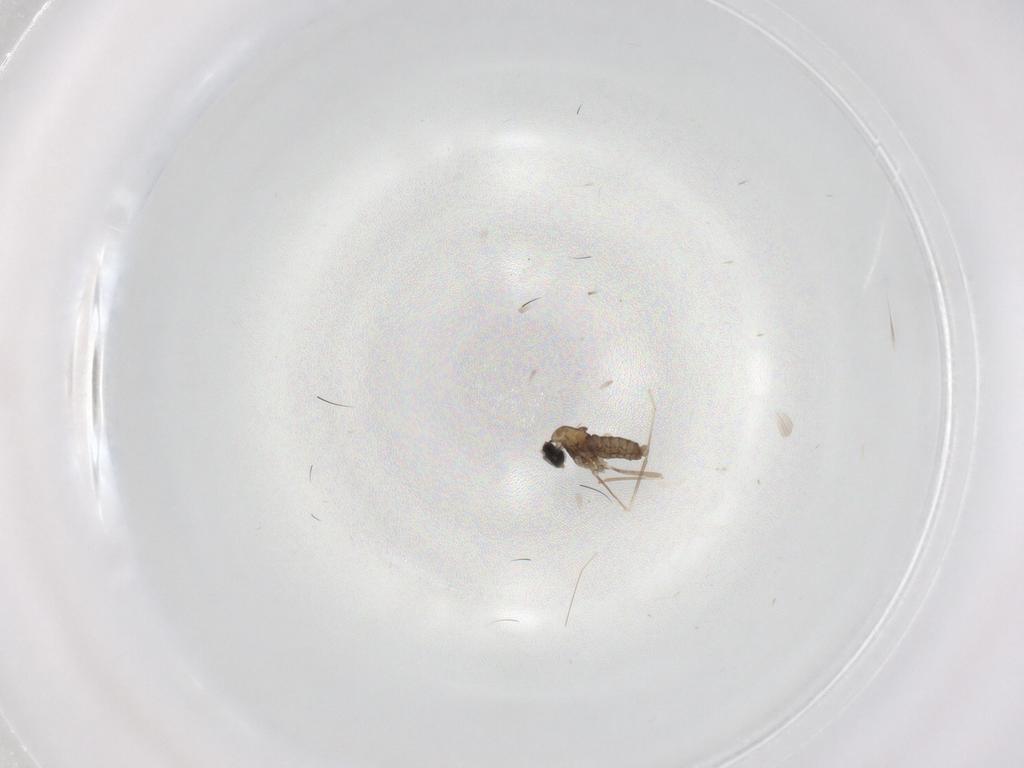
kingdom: Animalia
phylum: Arthropoda
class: Insecta
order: Diptera
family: Cecidomyiidae
